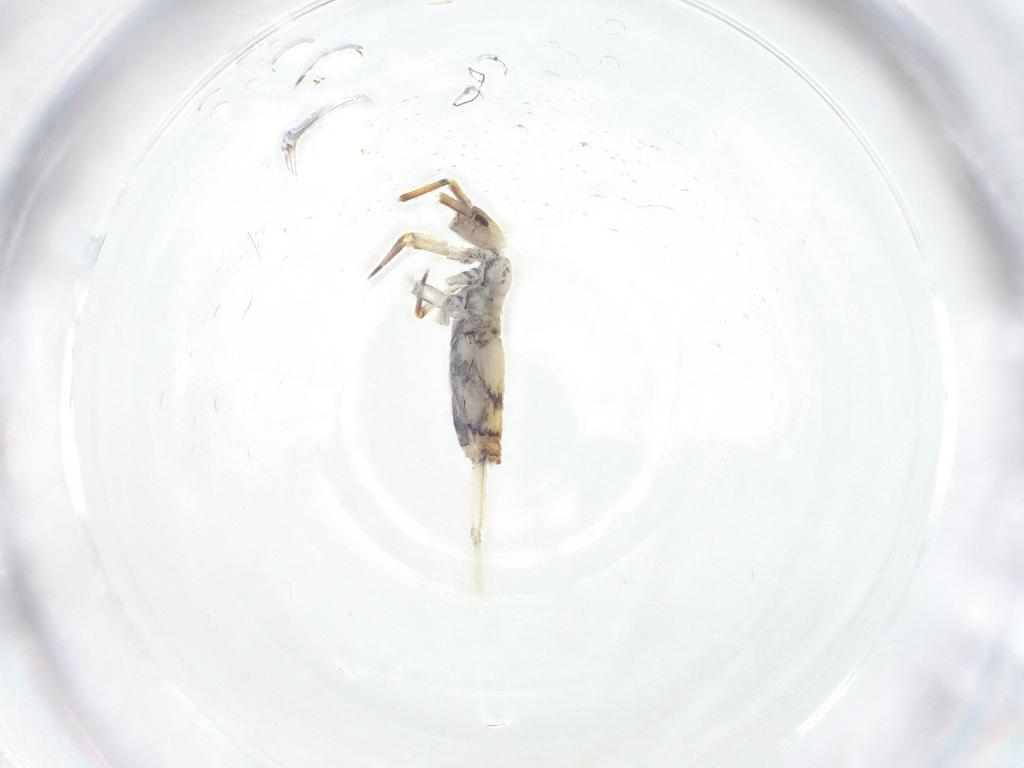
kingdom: Animalia
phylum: Arthropoda
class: Collembola
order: Entomobryomorpha
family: Entomobryidae
